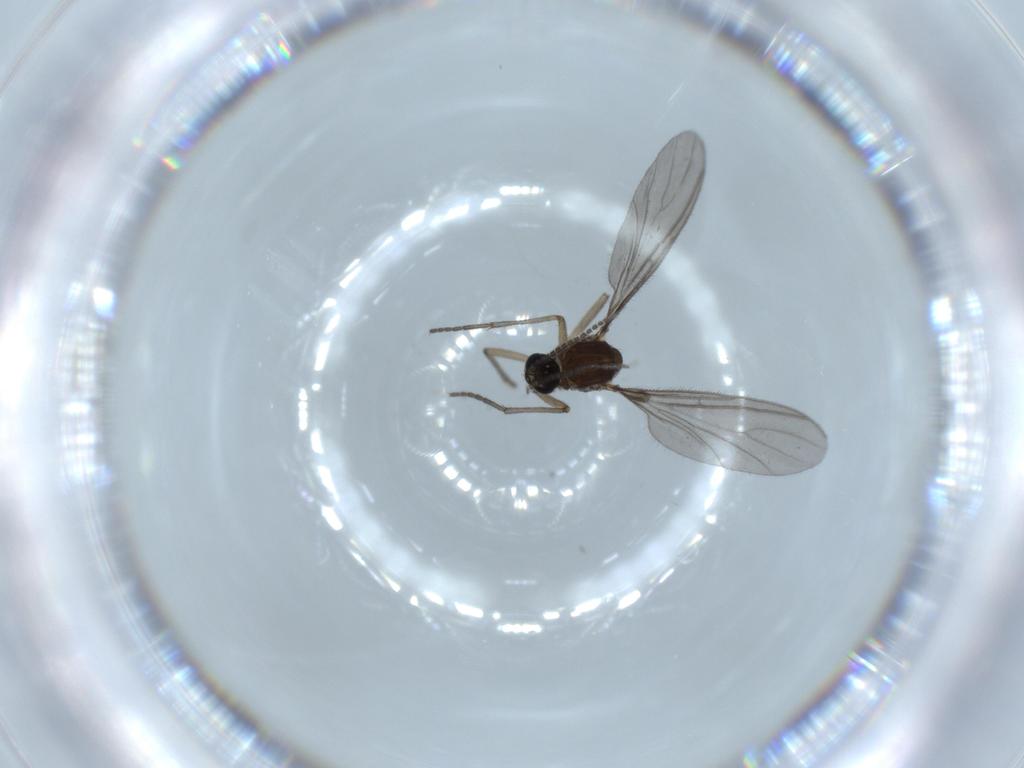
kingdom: Animalia
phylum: Arthropoda
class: Insecta
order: Diptera
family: Sciaridae
